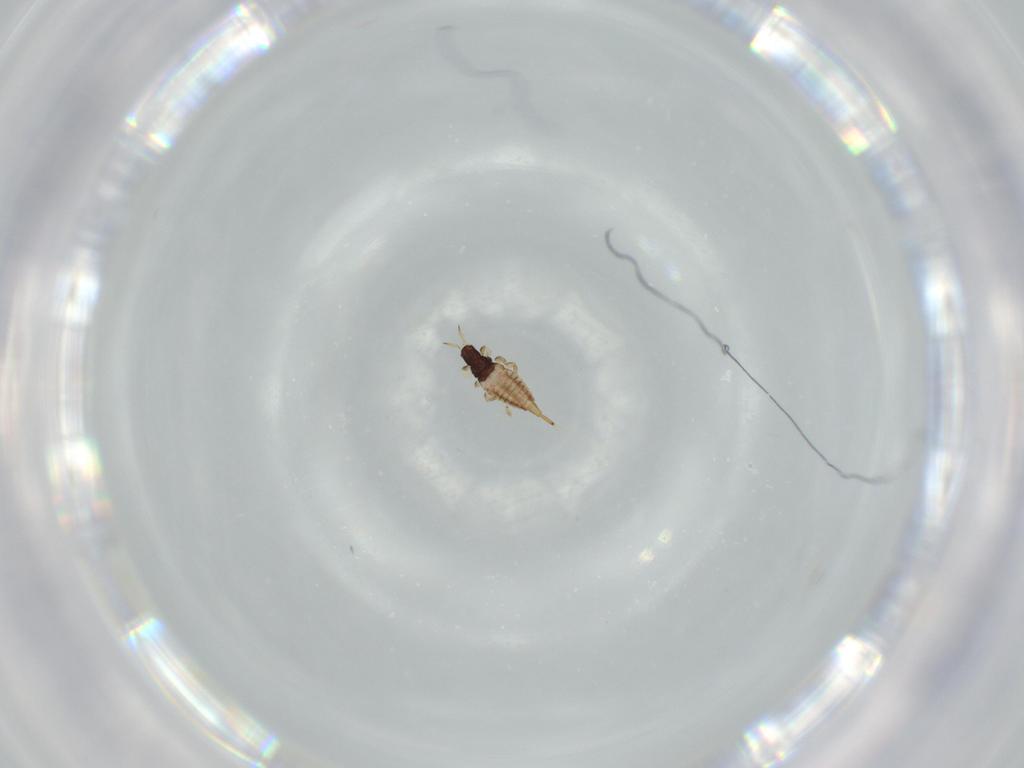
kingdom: Animalia
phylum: Arthropoda
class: Insecta
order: Thysanoptera
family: Phlaeothripidae
